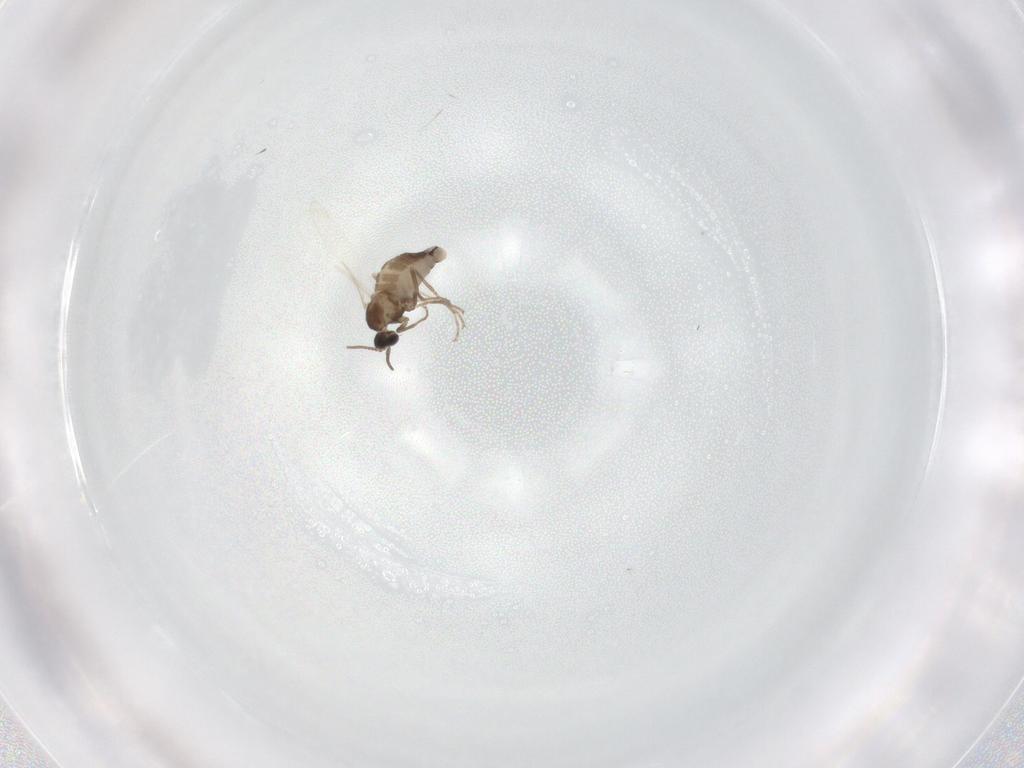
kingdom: Animalia
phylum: Arthropoda
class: Insecta
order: Diptera
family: Cecidomyiidae
